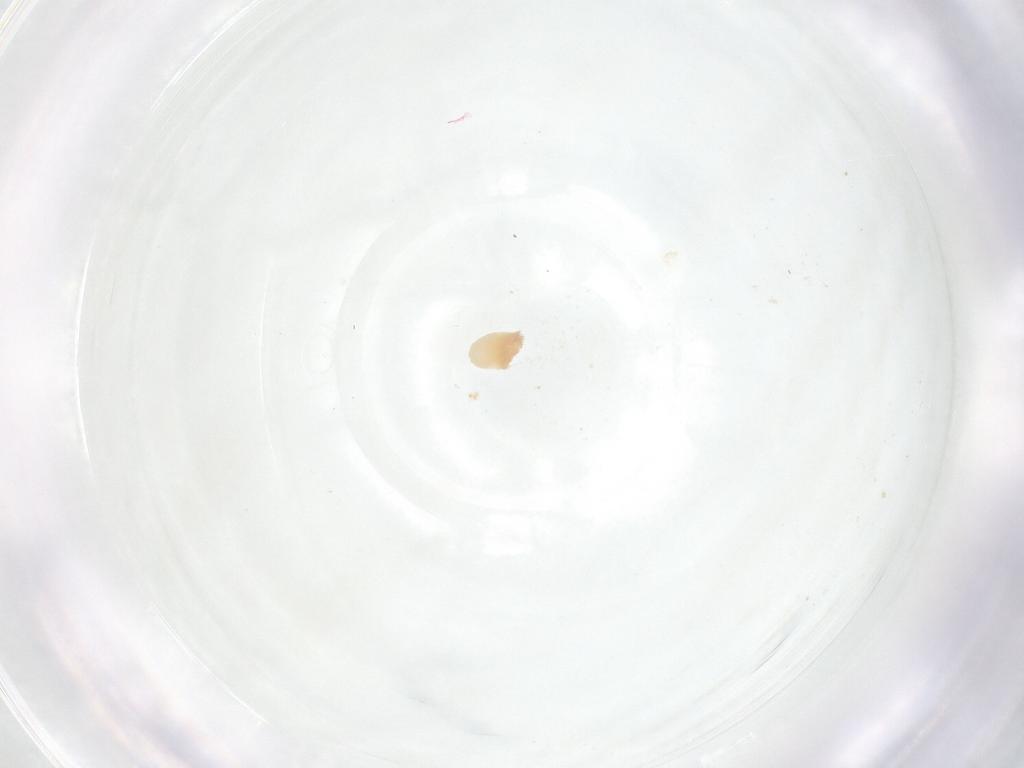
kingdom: Animalia
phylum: Arthropoda
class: Insecta
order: Diptera
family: Fergusoninidae
